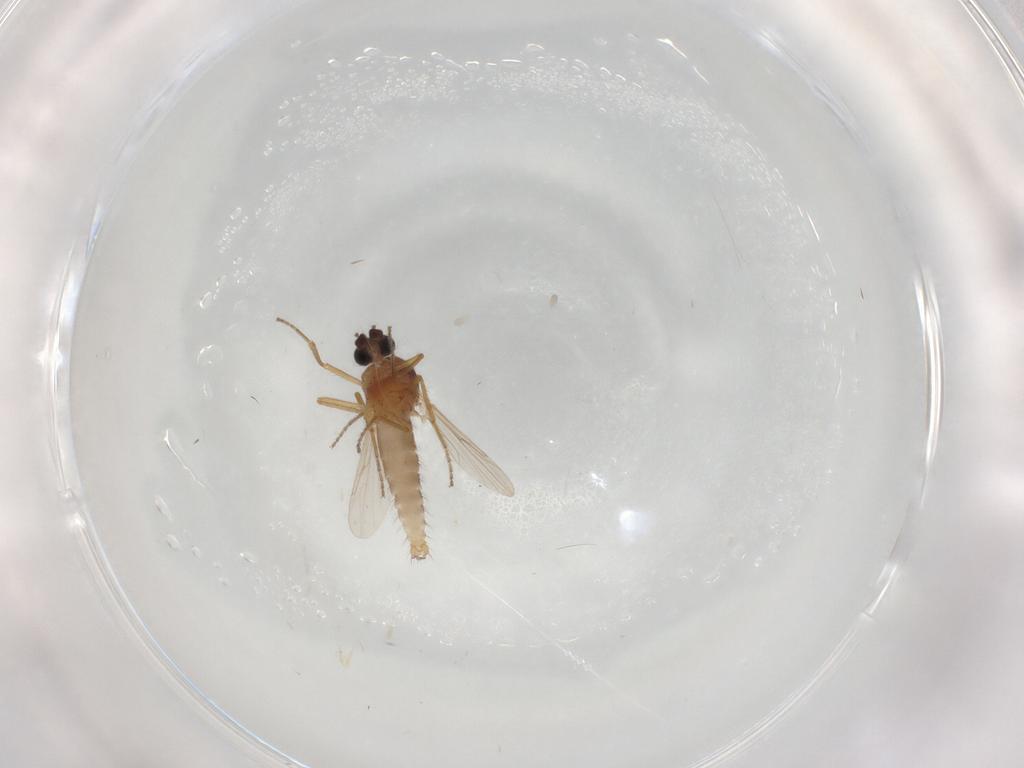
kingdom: Animalia
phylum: Arthropoda
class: Insecta
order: Diptera
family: Ceratopogonidae
